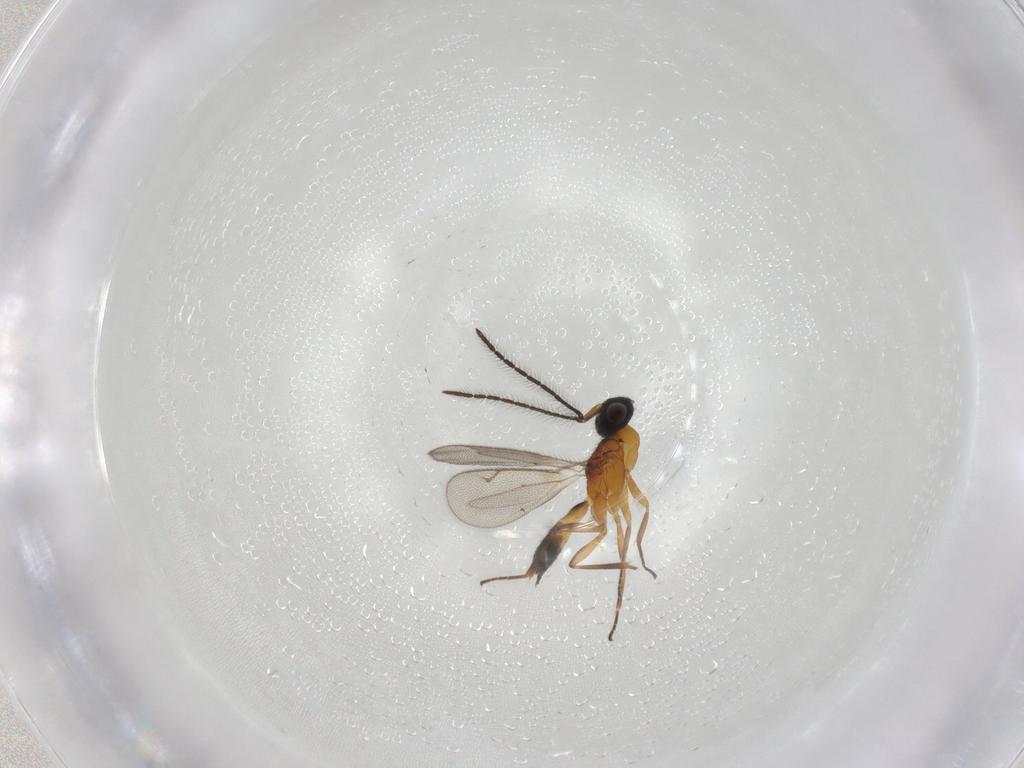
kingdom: Animalia
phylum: Arthropoda
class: Insecta
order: Hymenoptera
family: Eupelmidae
